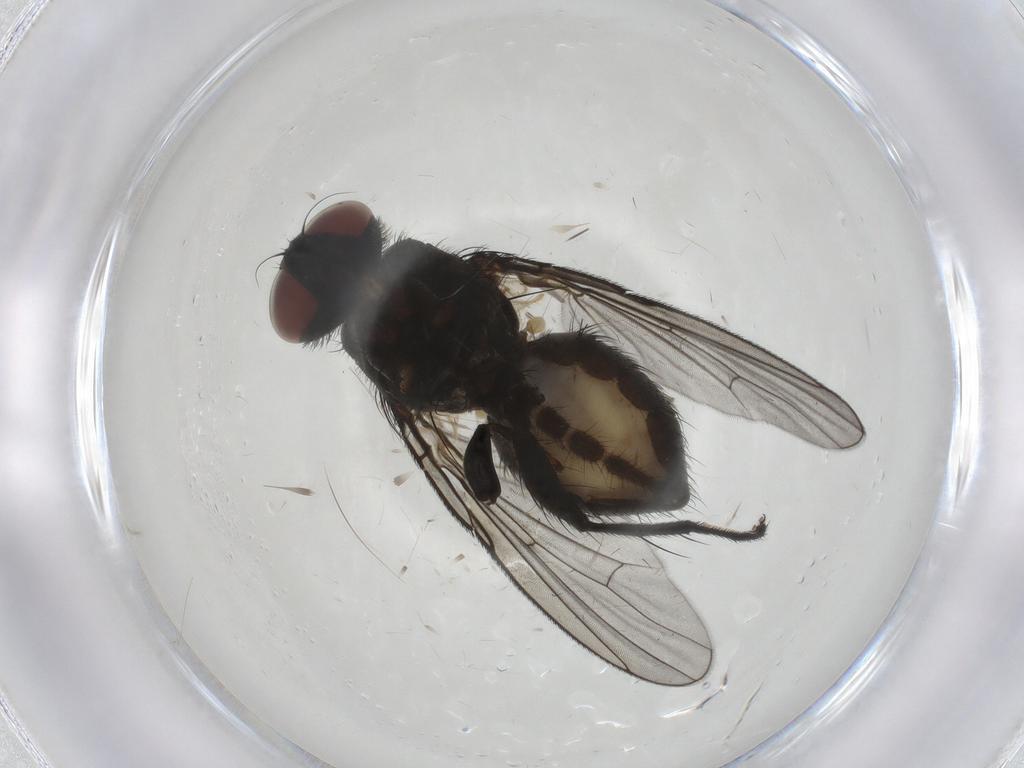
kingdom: Animalia
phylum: Arthropoda
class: Insecta
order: Diptera
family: Muscidae
